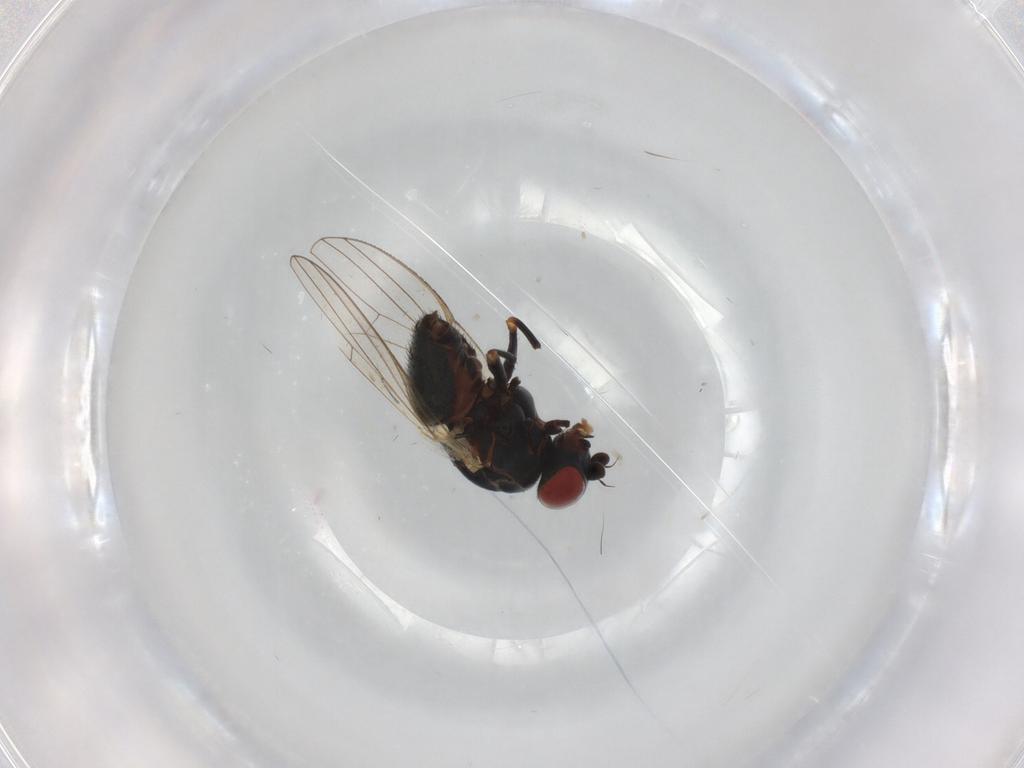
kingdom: Animalia
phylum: Arthropoda
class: Insecta
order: Diptera
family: Chamaemyiidae
